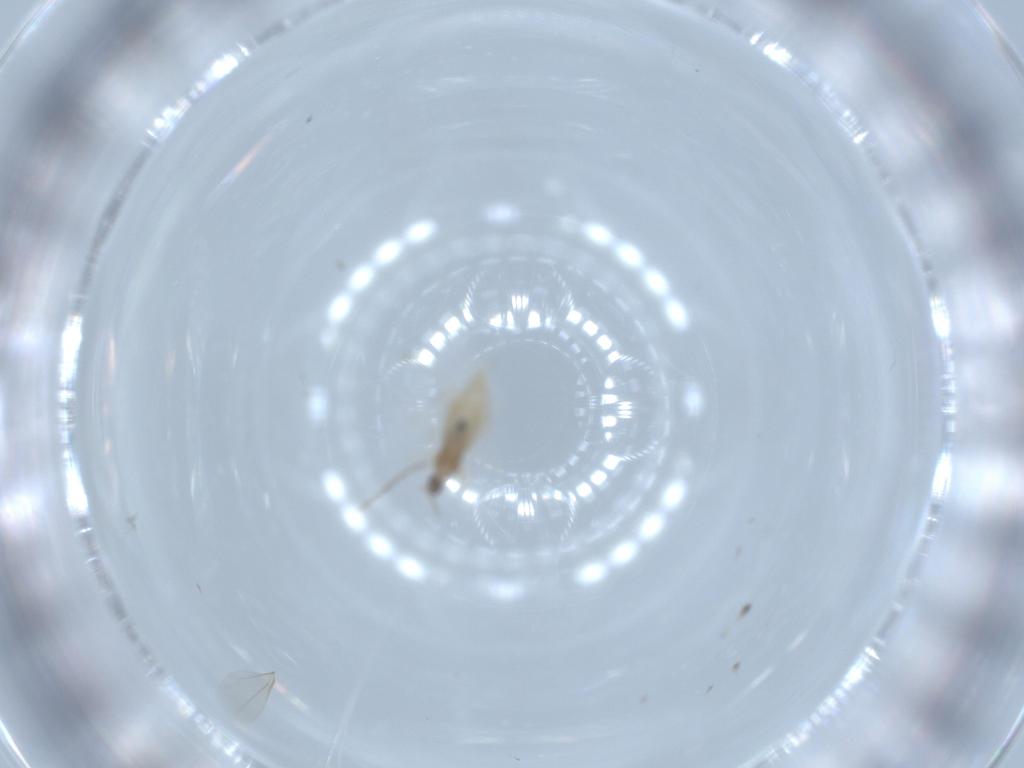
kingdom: Animalia
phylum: Arthropoda
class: Insecta
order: Diptera
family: Cecidomyiidae
